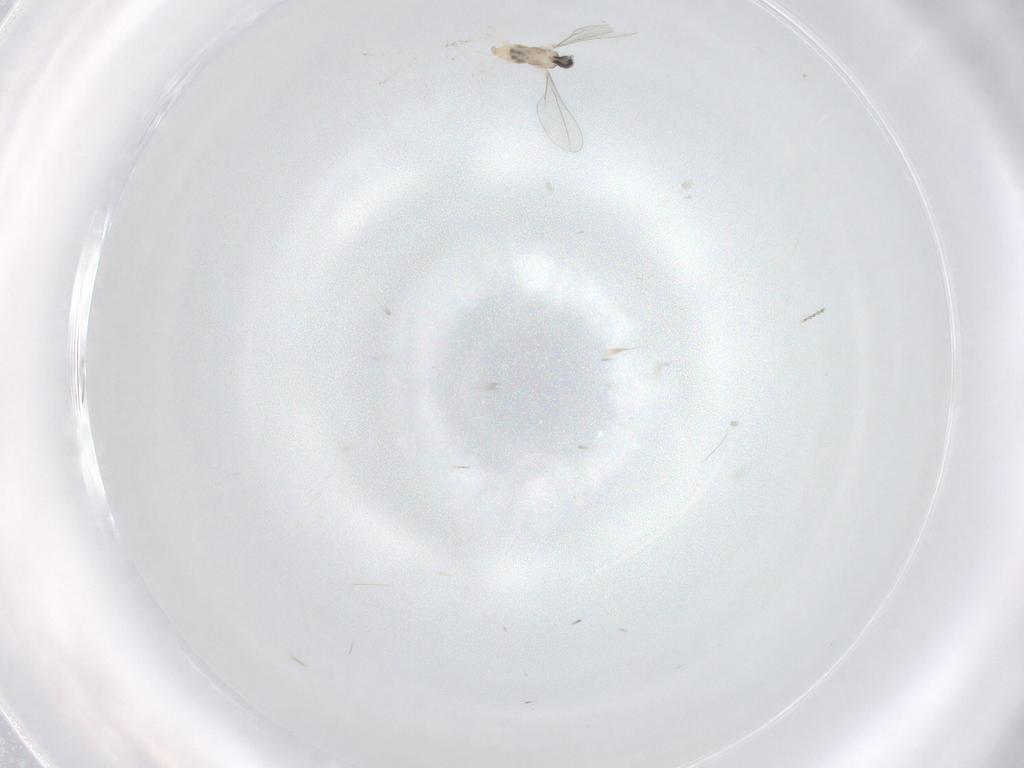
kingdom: Animalia
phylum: Arthropoda
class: Insecta
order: Diptera
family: Cecidomyiidae
